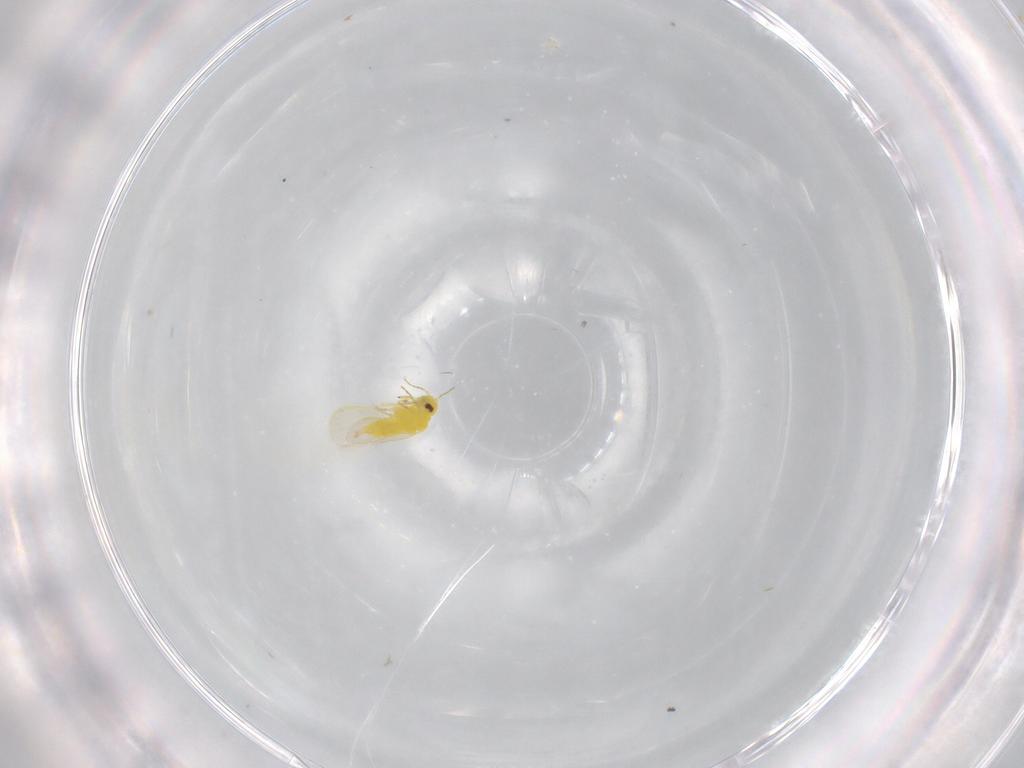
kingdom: Animalia
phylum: Arthropoda
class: Insecta
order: Hemiptera
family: Aleyrodidae
